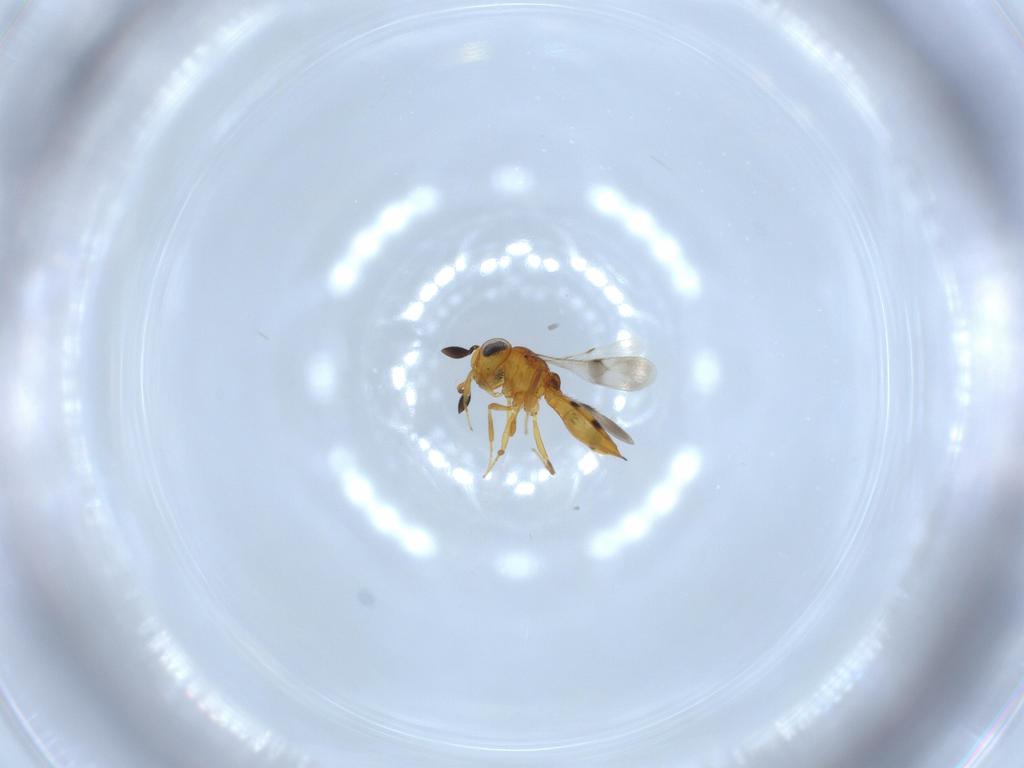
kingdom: Animalia
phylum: Arthropoda
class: Insecta
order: Hymenoptera
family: Scelionidae
